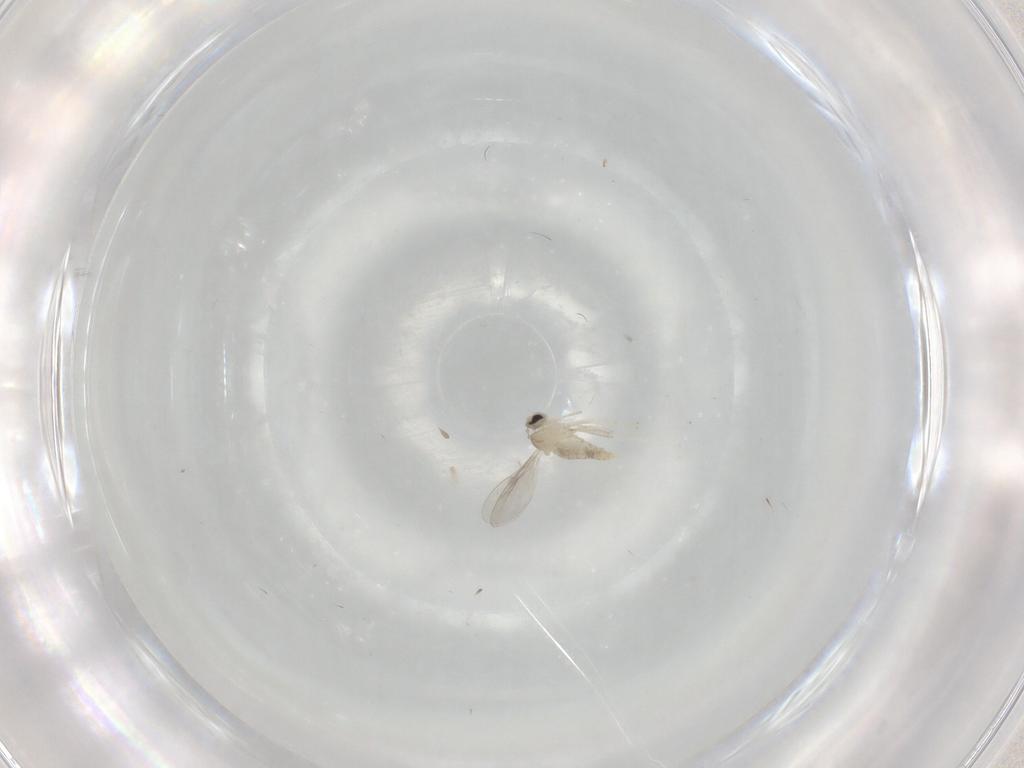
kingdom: Animalia
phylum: Arthropoda
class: Insecta
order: Diptera
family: Cecidomyiidae
